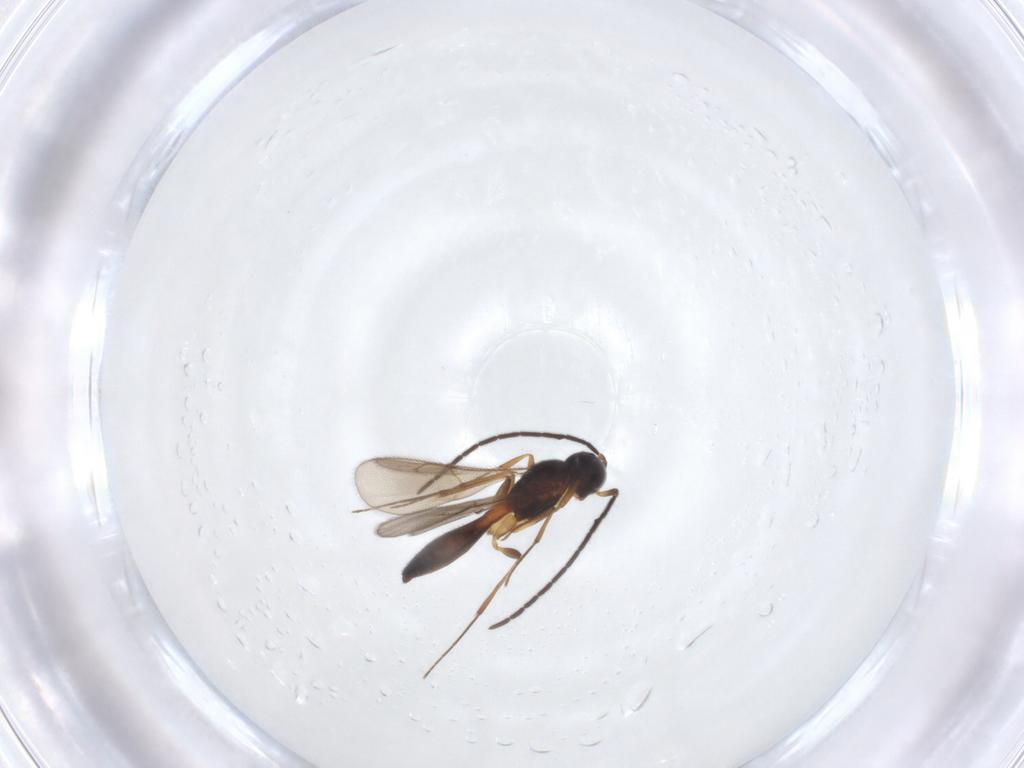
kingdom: Animalia
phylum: Arthropoda
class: Insecta
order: Hymenoptera
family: Scelionidae
